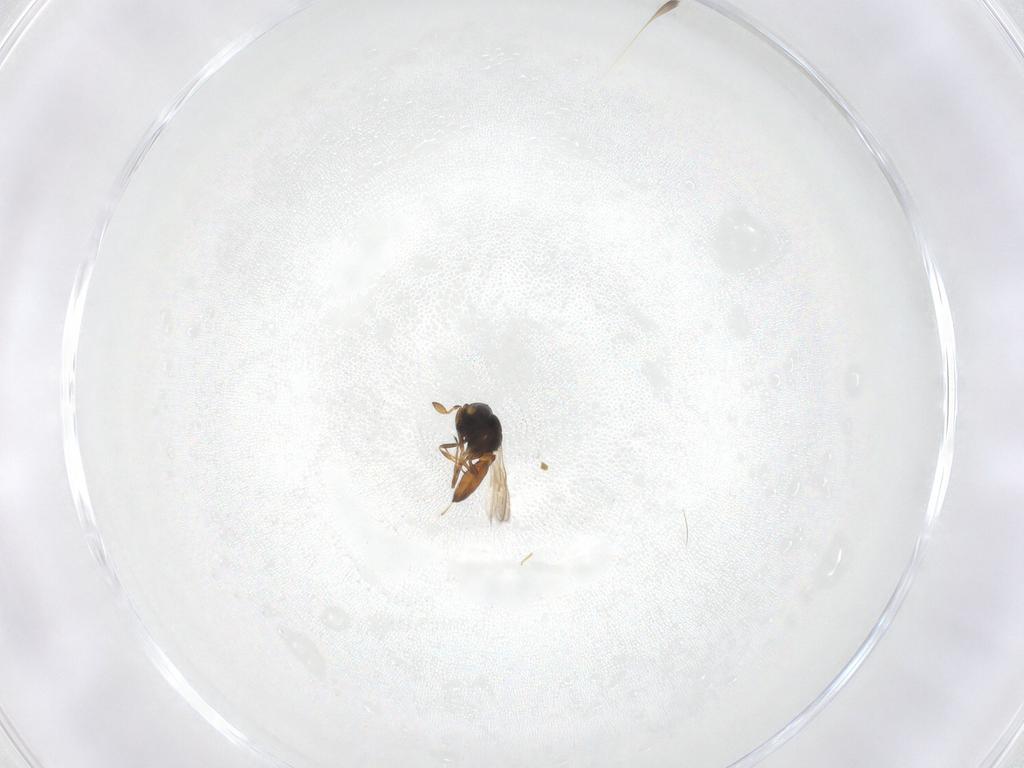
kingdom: Animalia
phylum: Arthropoda
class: Insecta
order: Hymenoptera
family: Scelionidae
